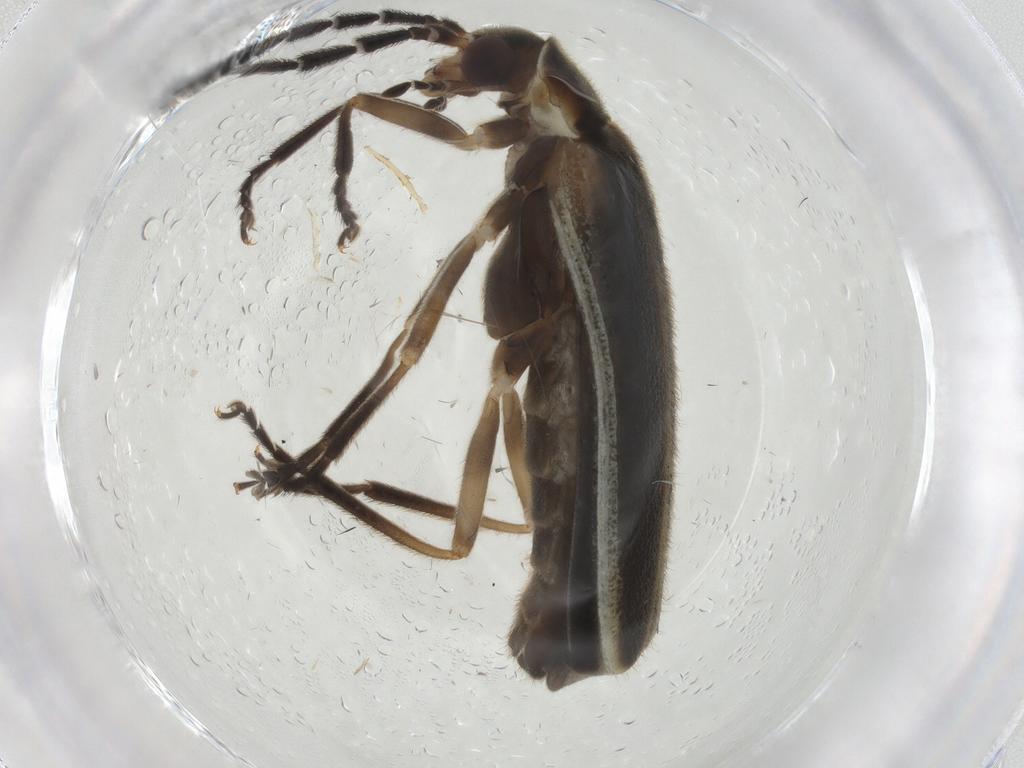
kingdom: Animalia
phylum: Arthropoda
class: Insecta
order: Coleoptera
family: Cantharidae
